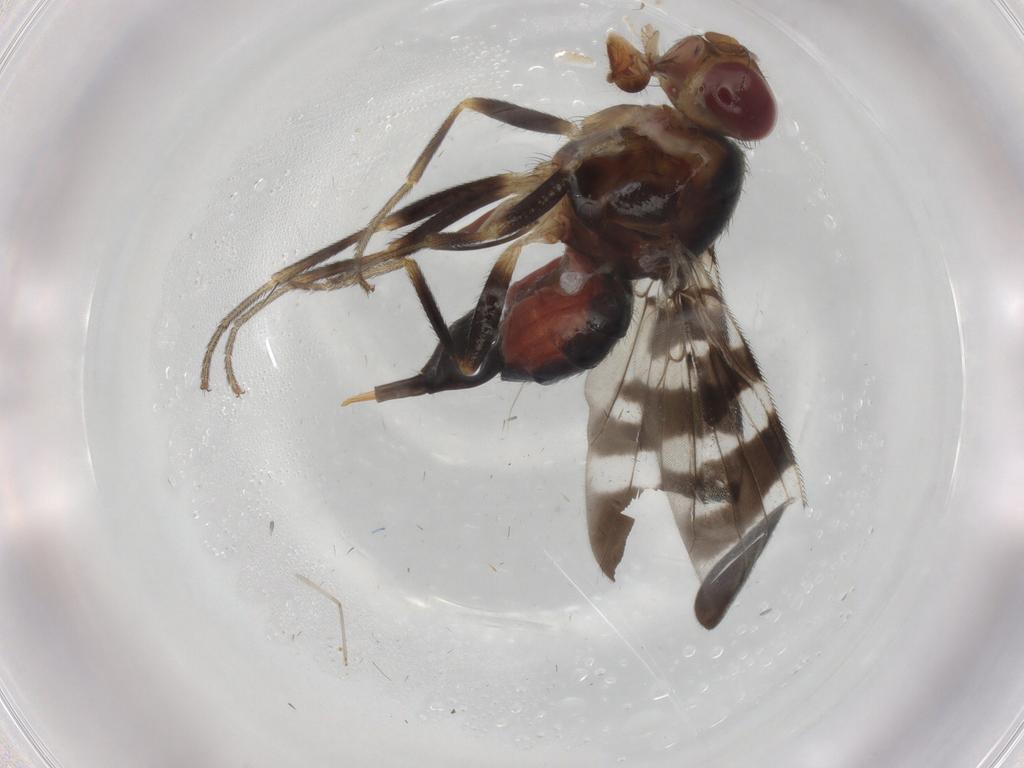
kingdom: Animalia
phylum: Arthropoda
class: Insecta
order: Diptera
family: Tephritidae
